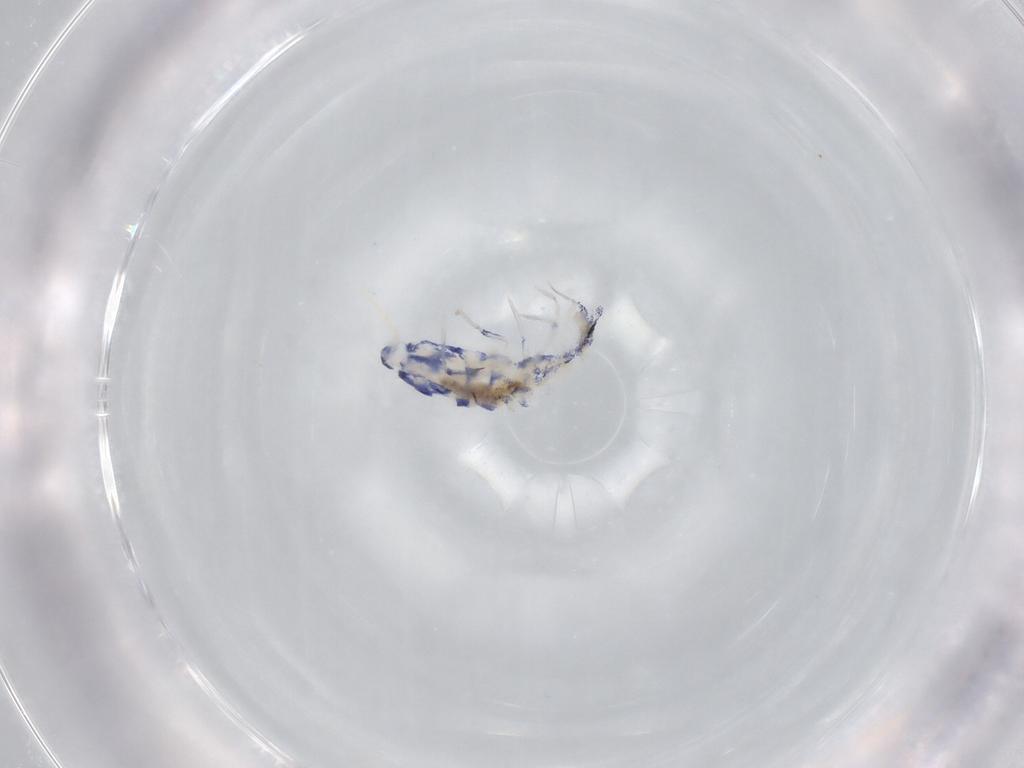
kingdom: Animalia
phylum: Arthropoda
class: Collembola
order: Entomobryomorpha
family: Entomobryidae
